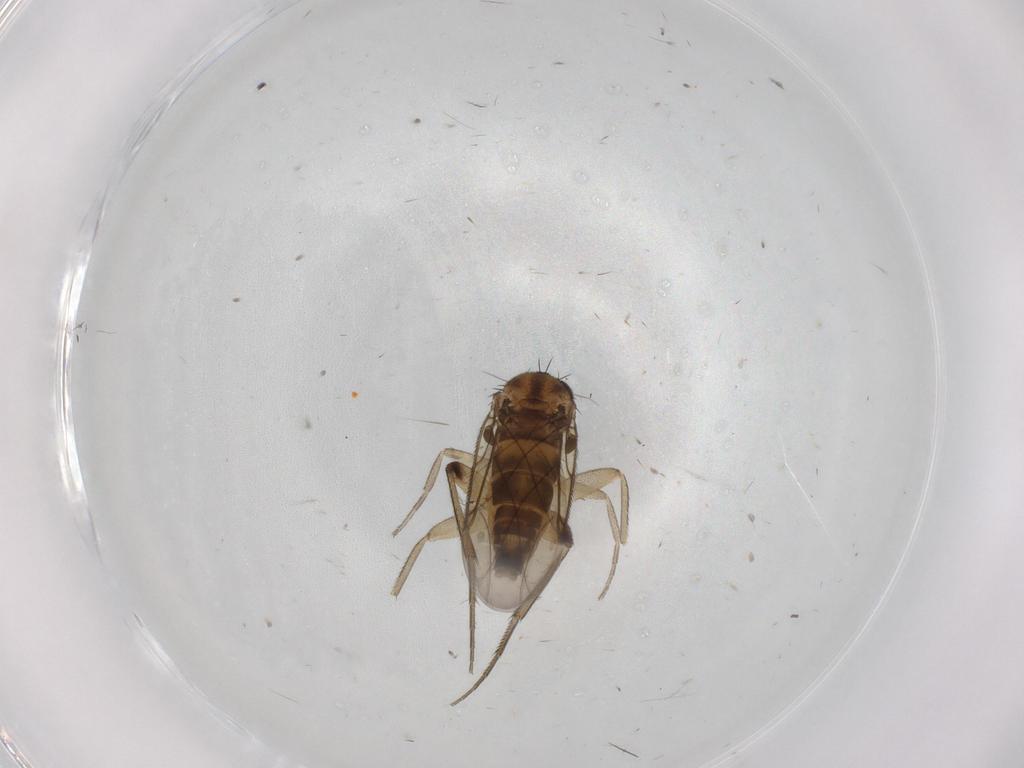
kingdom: Animalia
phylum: Arthropoda
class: Insecta
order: Diptera
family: Phoridae
